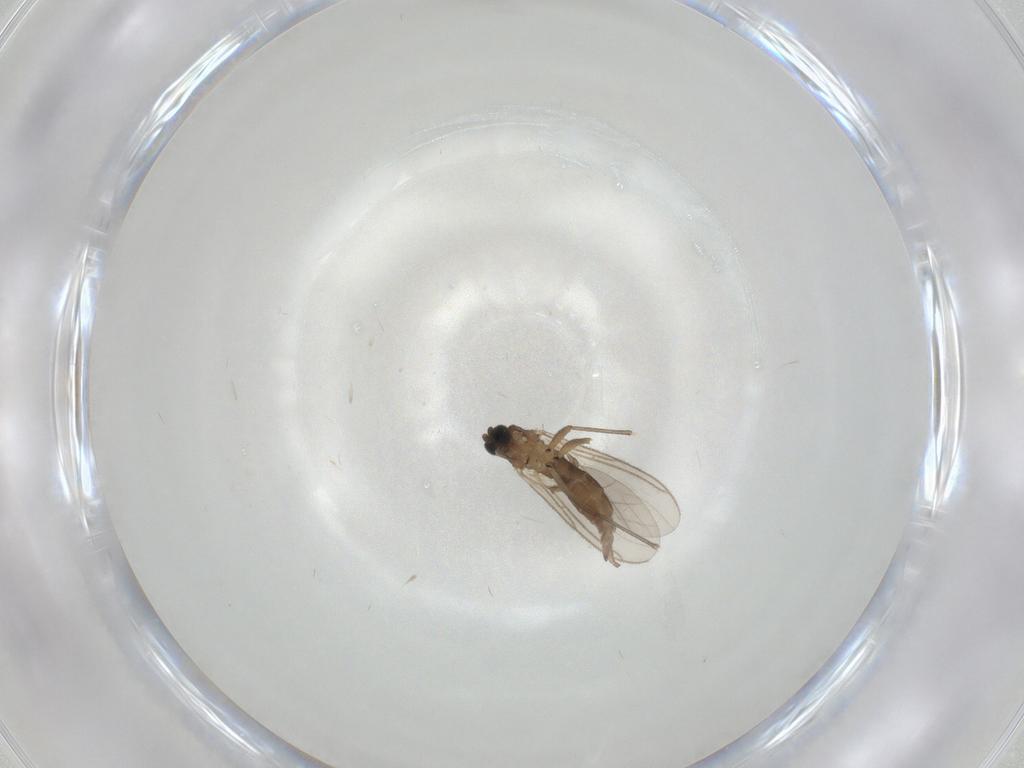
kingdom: Animalia
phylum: Arthropoda
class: Insecta
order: Diptera
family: Sciaridae
